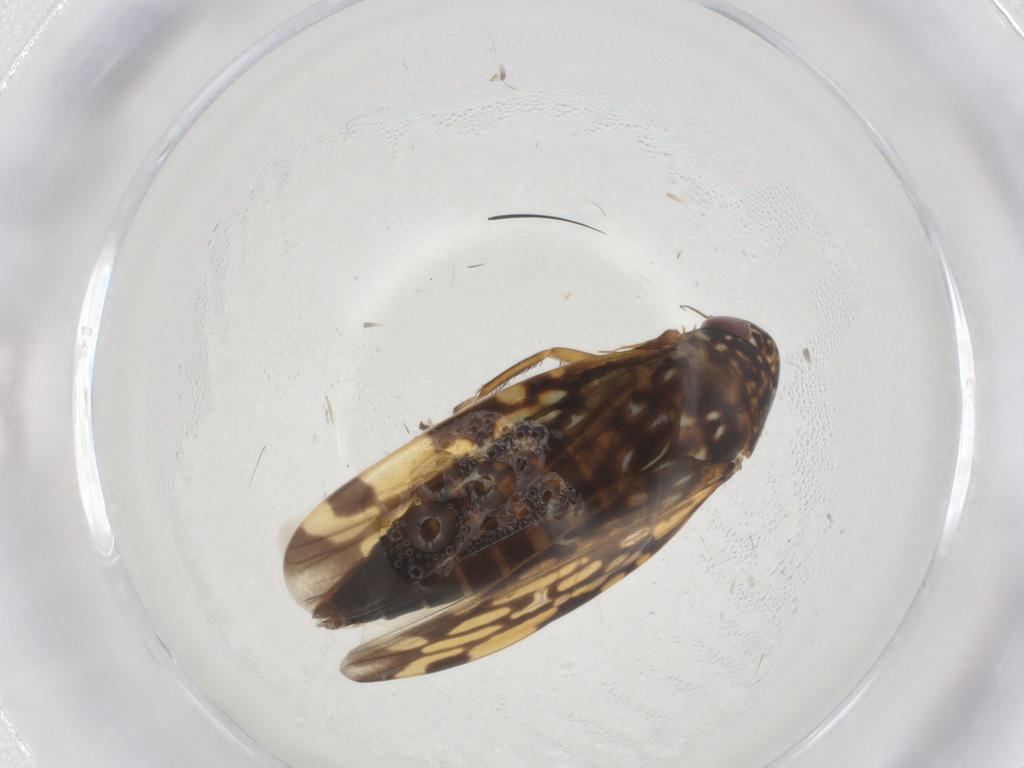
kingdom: Animalia
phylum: Arthropoda
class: Insecta
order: Hemiptera
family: Cicadellidae
